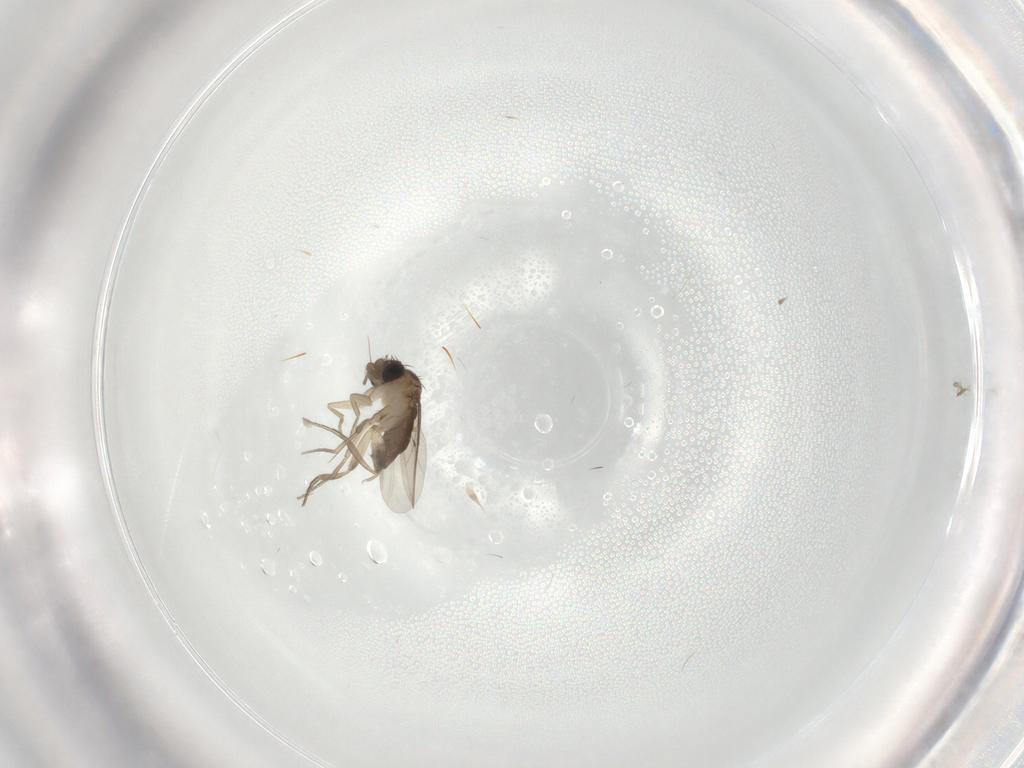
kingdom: Animalia
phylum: Arthropoda
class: Insecta
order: Diptera
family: Phoridae
